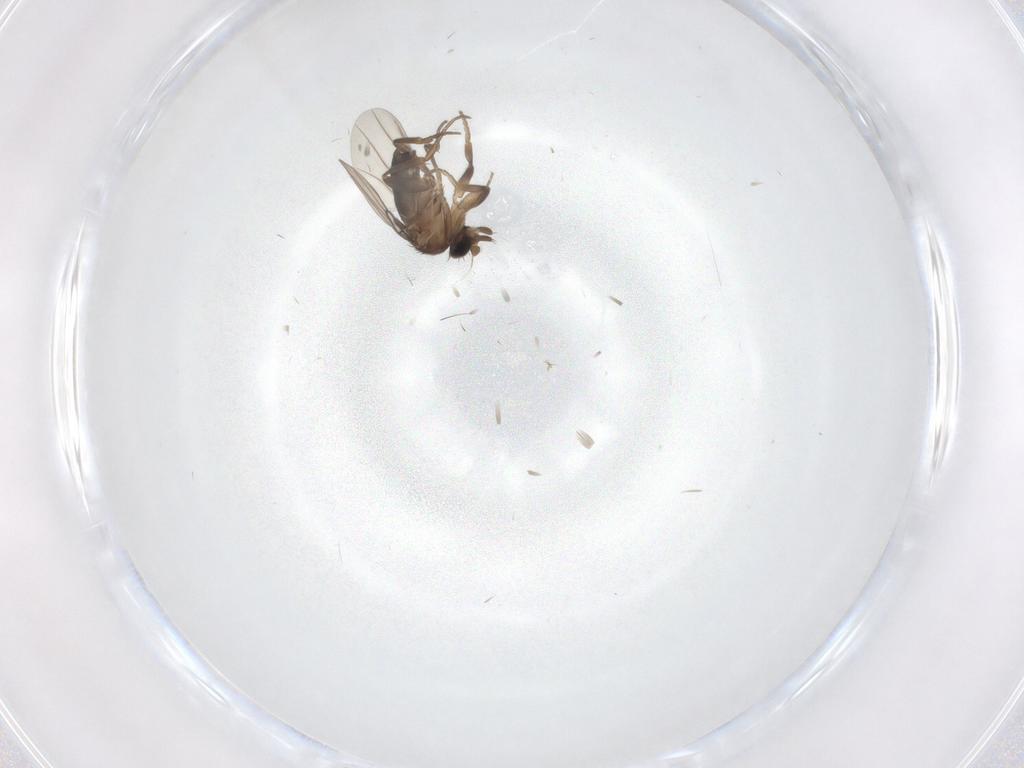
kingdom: Animalia
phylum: Arthropoda
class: Insecta
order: Diptera
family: Phoridae
